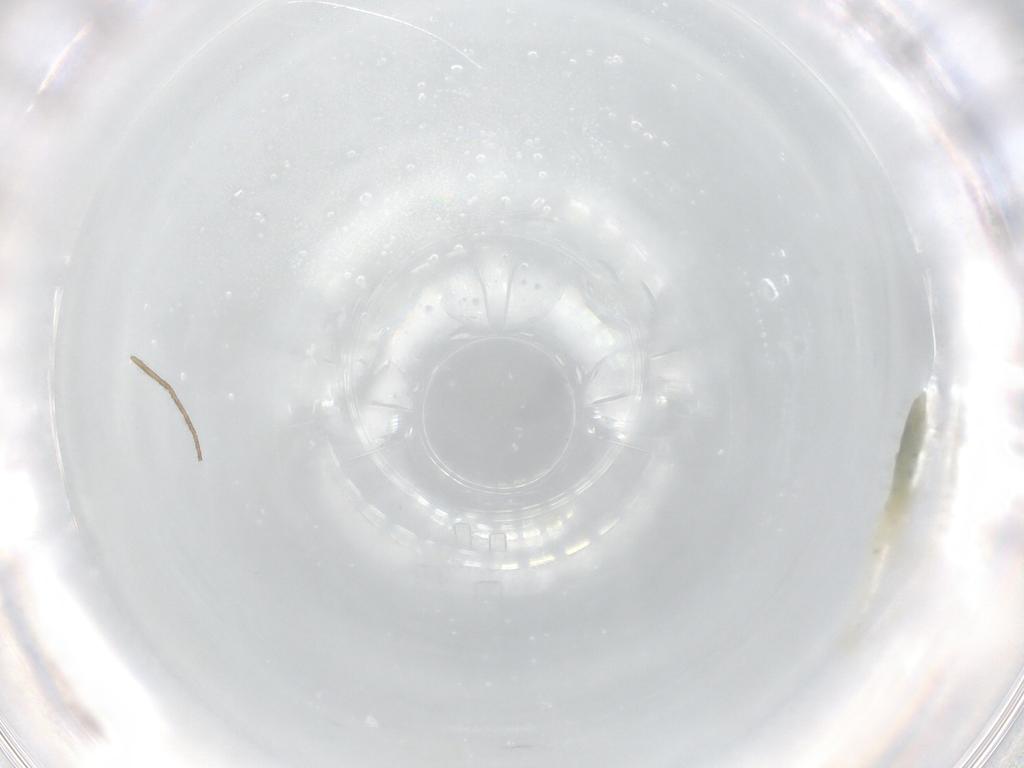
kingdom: Animalia
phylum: Arthropoda
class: Arachnida
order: Trombidiformes
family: Erythraeidae
